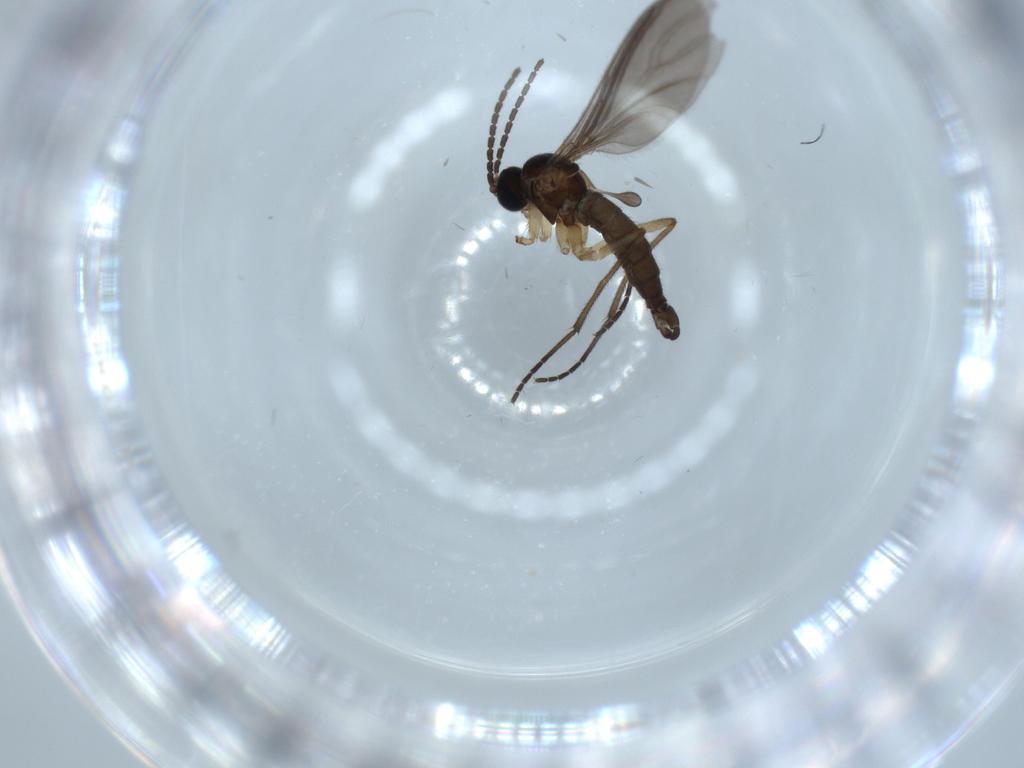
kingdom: Animalia
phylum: Arthropoda
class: Insecta
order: Diptera
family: Sciaridae
